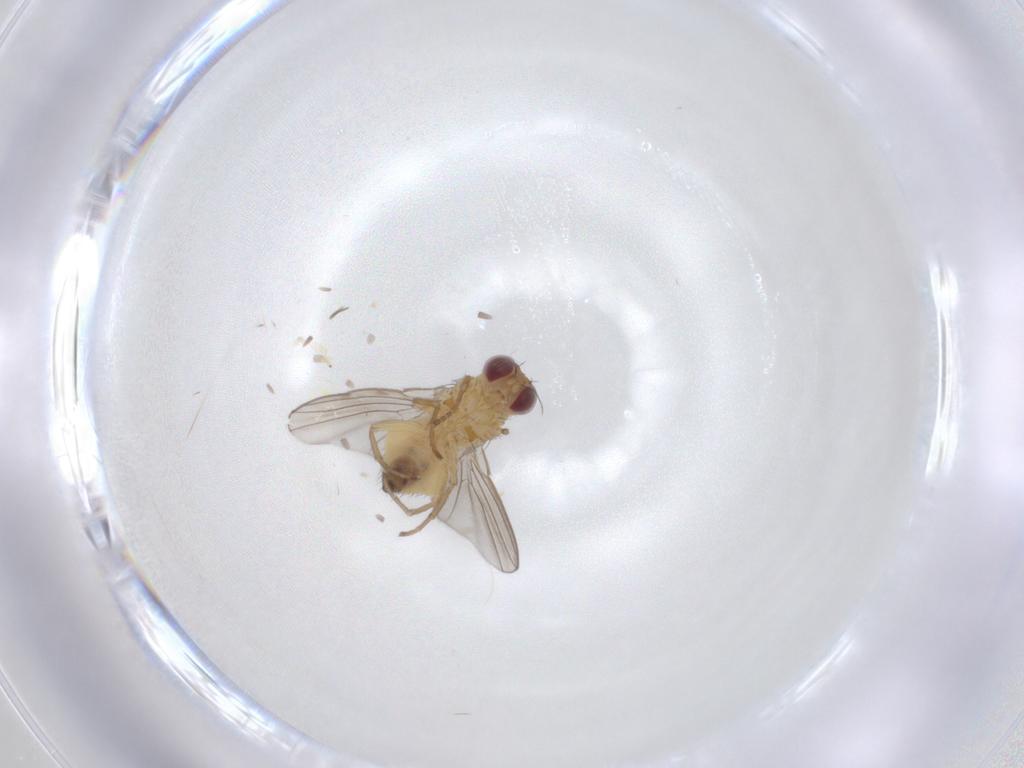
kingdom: Animalia
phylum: Arthropoda
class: Insecta
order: Diptera
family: Agromyzidae
